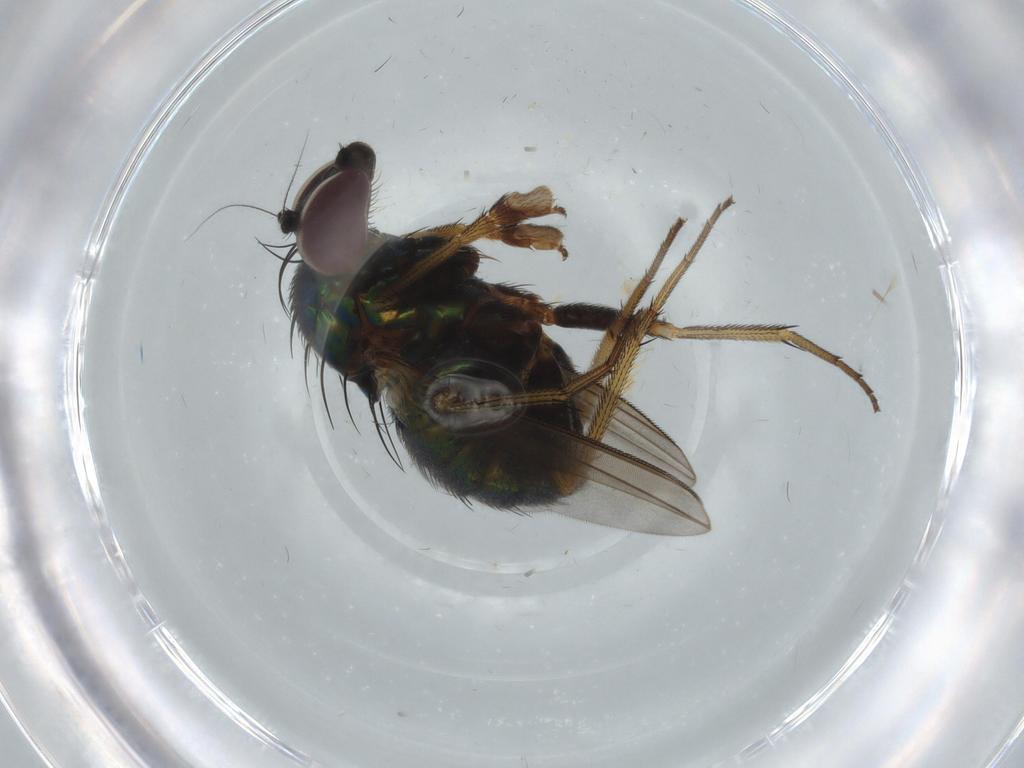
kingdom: Animalia
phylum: Arthropoda
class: Insecta
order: Diptera
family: Dolichopodidae
